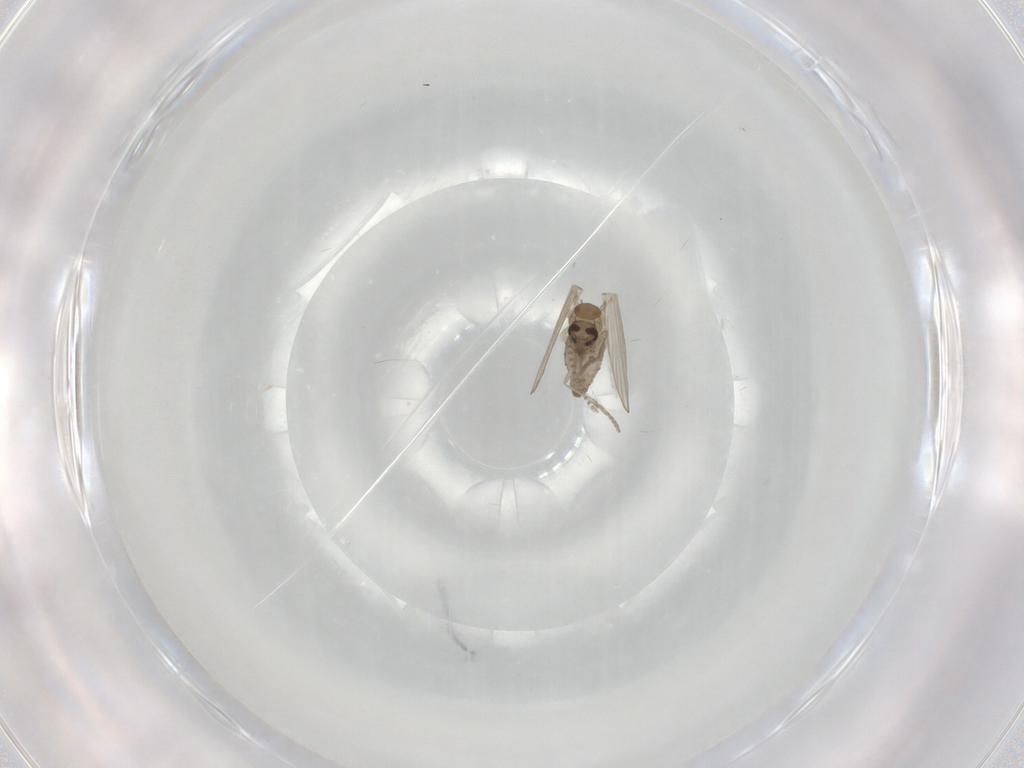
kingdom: Animalia
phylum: Arthropoda
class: Insecta
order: Diptera
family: Psychodidae
